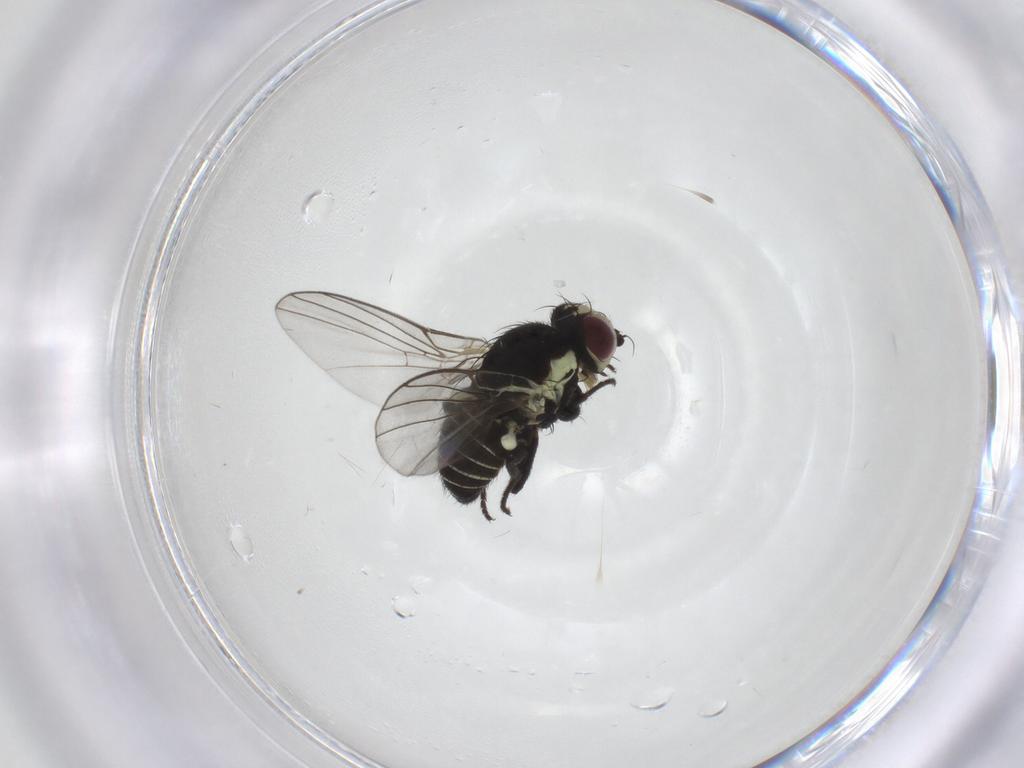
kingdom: Animalia
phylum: Arthropoda
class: Insecta
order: Diptera
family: Agromyzidae
